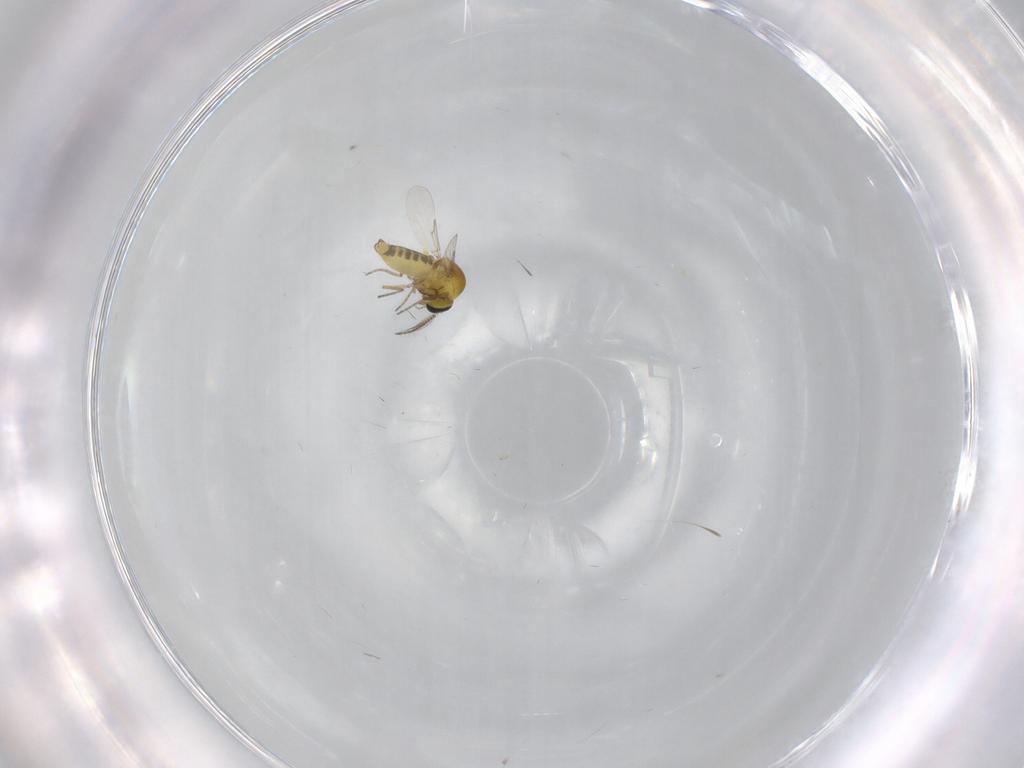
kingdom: Animalia
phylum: Arthropoda
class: Insecta
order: Diptera
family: Ceratopogonidae
